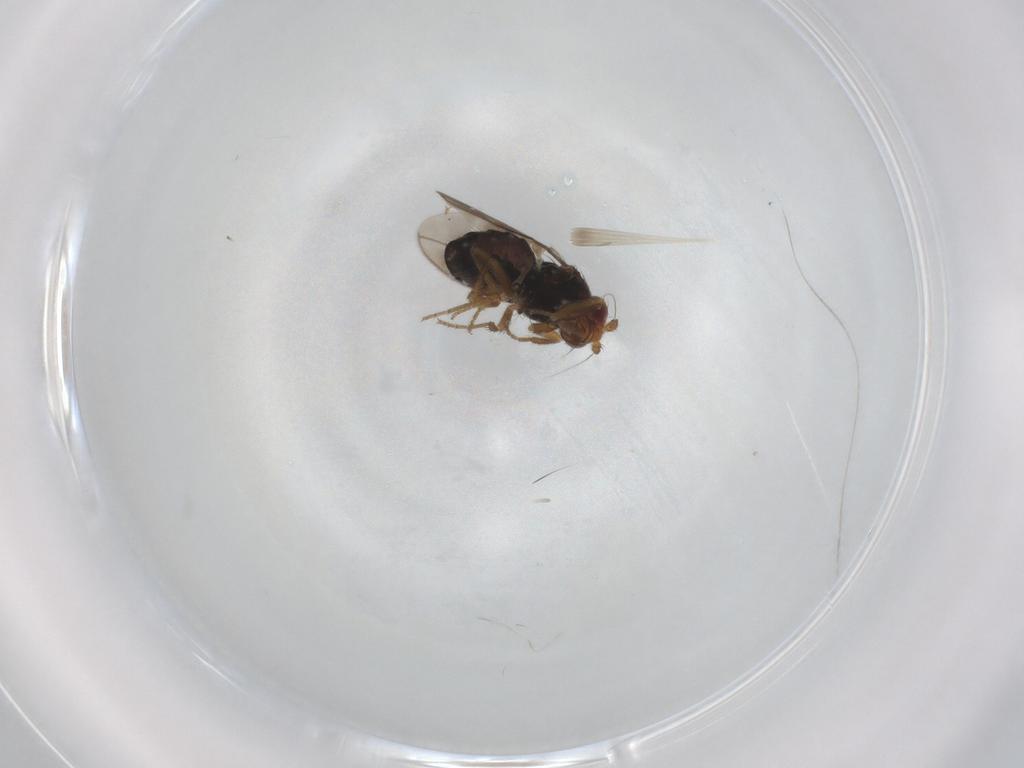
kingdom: Animalia
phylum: Arthropoda
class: Insecta
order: Diptera
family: Sphaeroceridae
